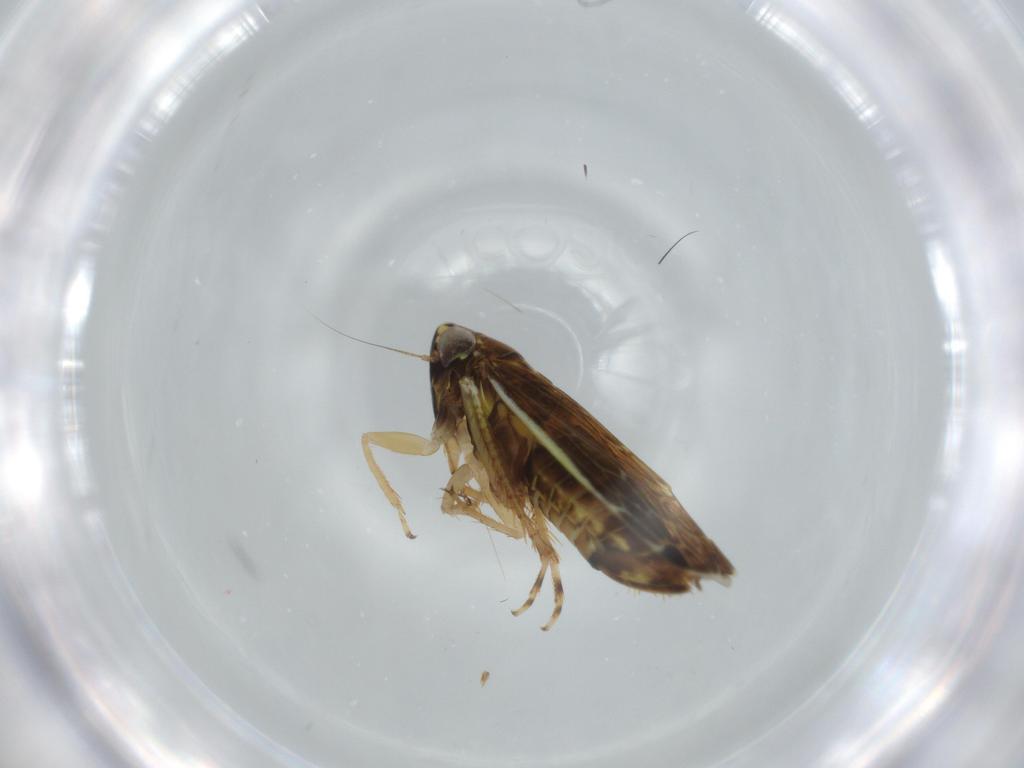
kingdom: Animalia
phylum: Arthropoda
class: Insecta
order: Hemiptera
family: Cicadellidae
